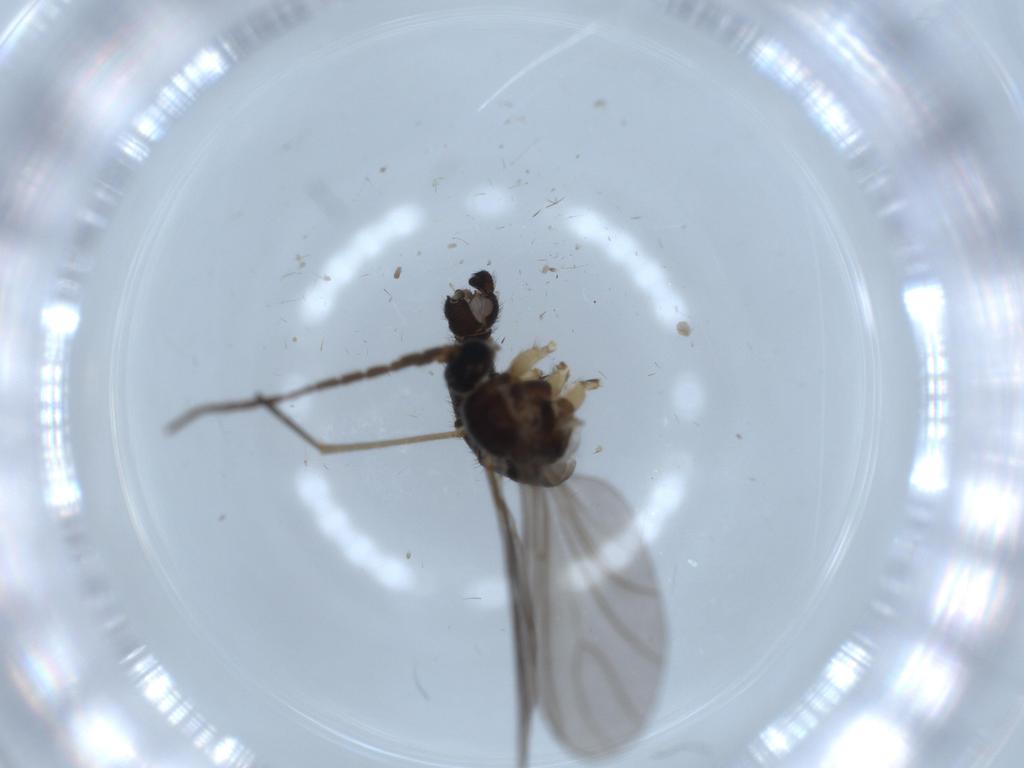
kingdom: Animalia
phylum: Arthropoda
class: Insecta
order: Diptera
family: Sciaridae
